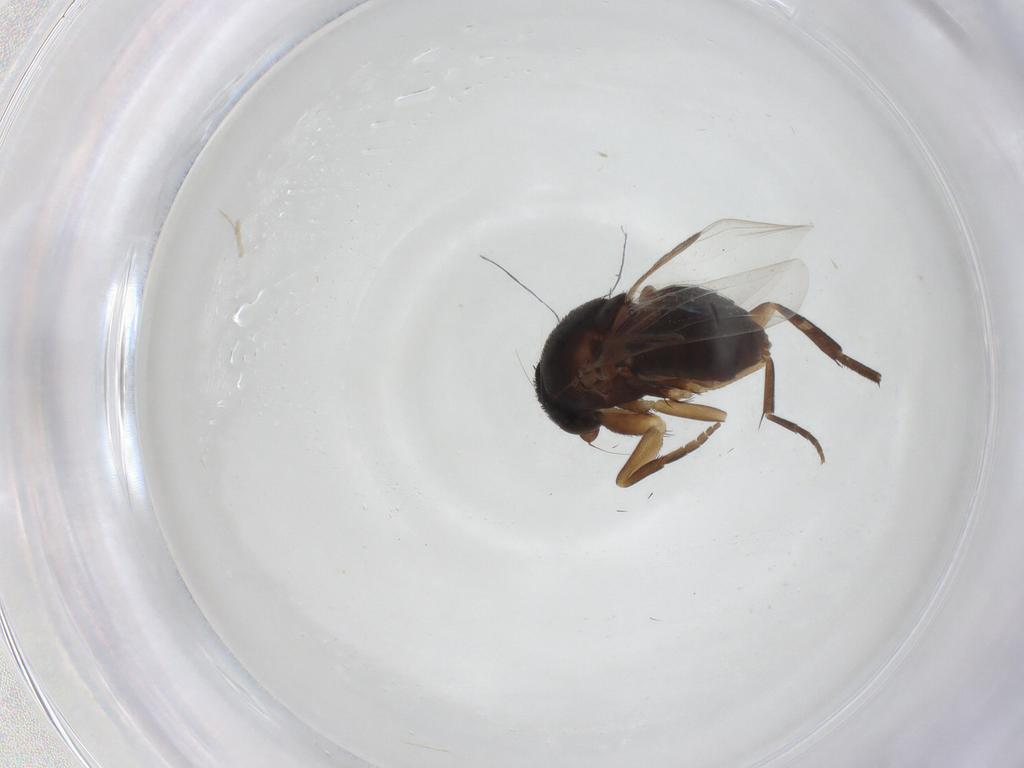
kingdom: Animalia
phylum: Arthropoda
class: Insecta
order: Diptera
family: Phoridae
